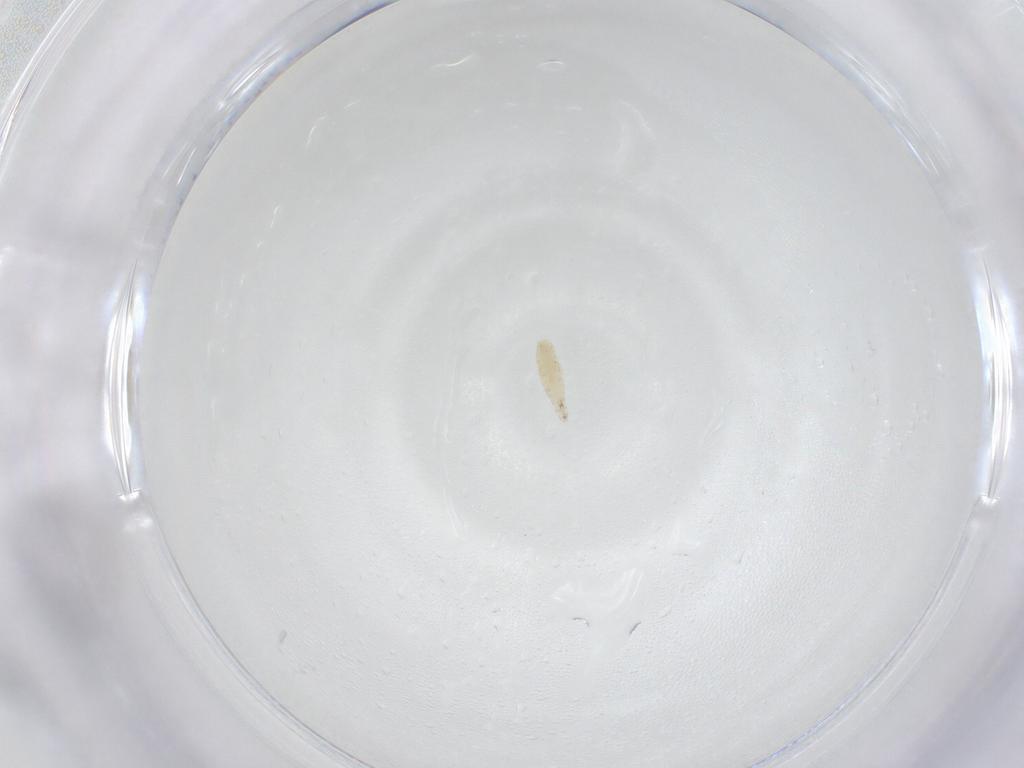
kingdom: Animalia
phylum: Arthropoda
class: Insecta
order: Diptera
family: Sarcophagidae
